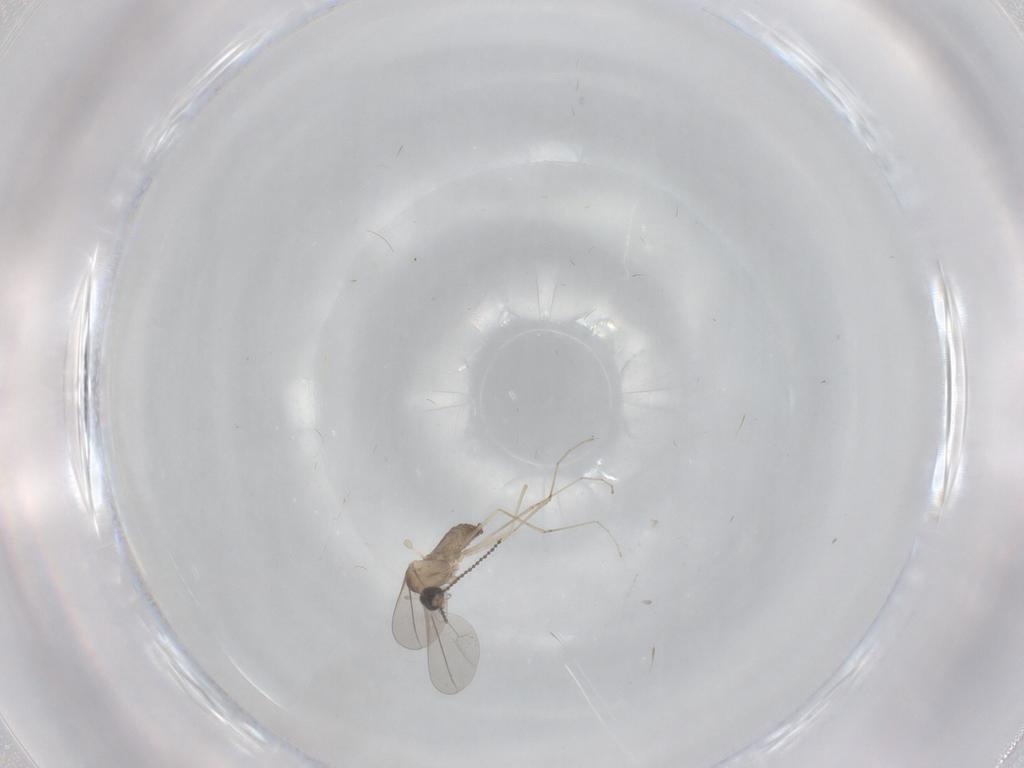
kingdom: Animalia
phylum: Arthropoda
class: Insecta
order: Diptera
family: Cecidomyiidae
